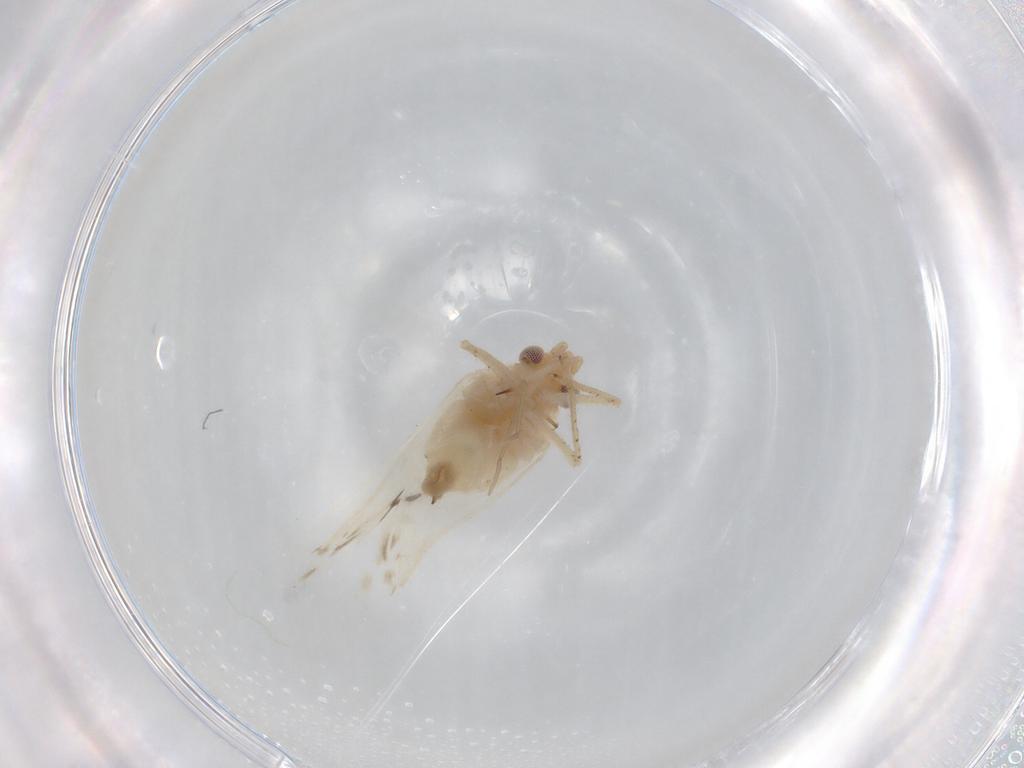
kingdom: Animalia
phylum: Arthropoda
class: Insecta
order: Hemiptera
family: Miridae
